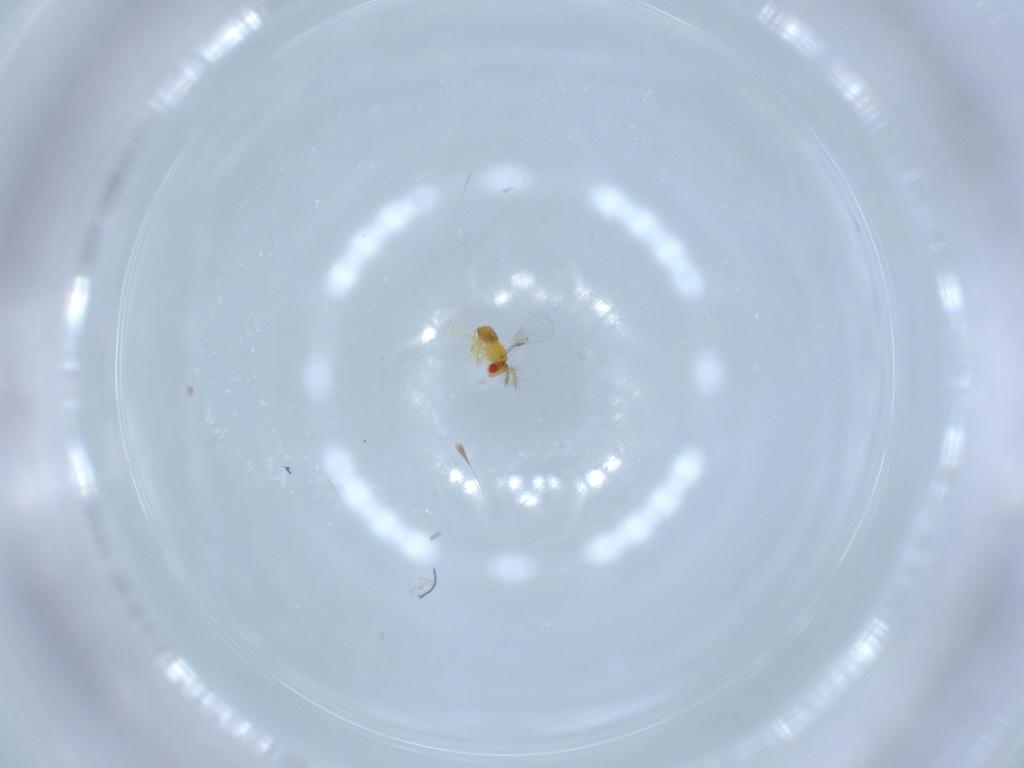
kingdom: Animalia
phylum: Arthropoda
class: Insecta
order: Hymenoptera
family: Trichogrammatidae
